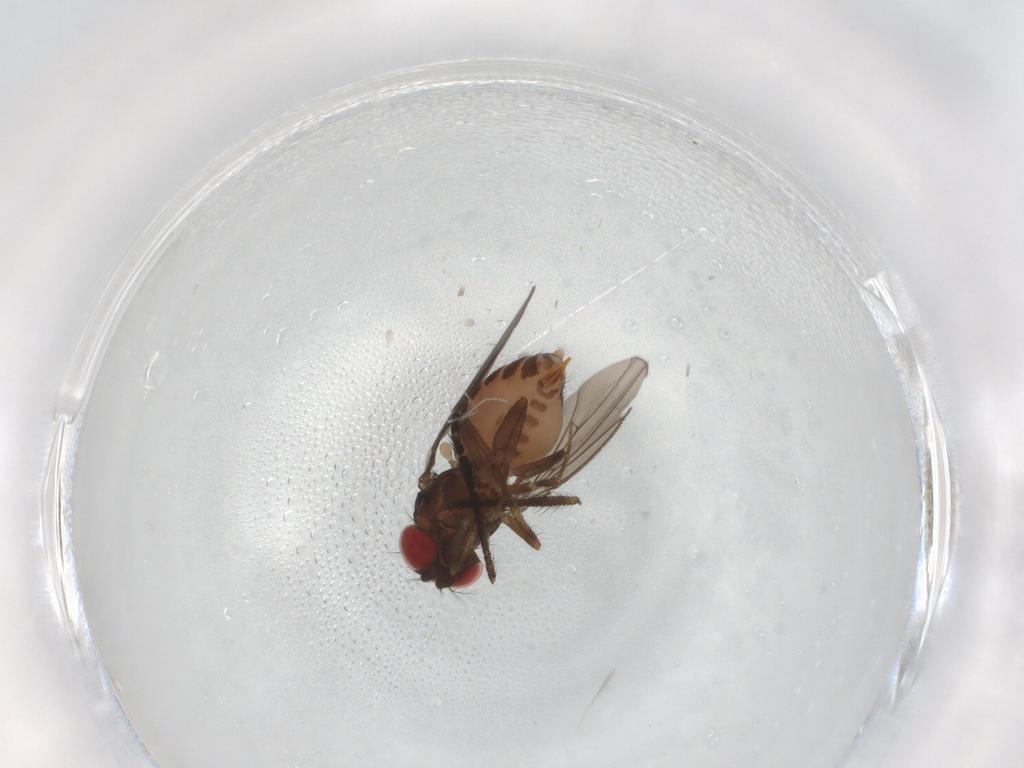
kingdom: Animalia
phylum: Arthropoda
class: Insecta
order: Diptera
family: Drosophilidae
